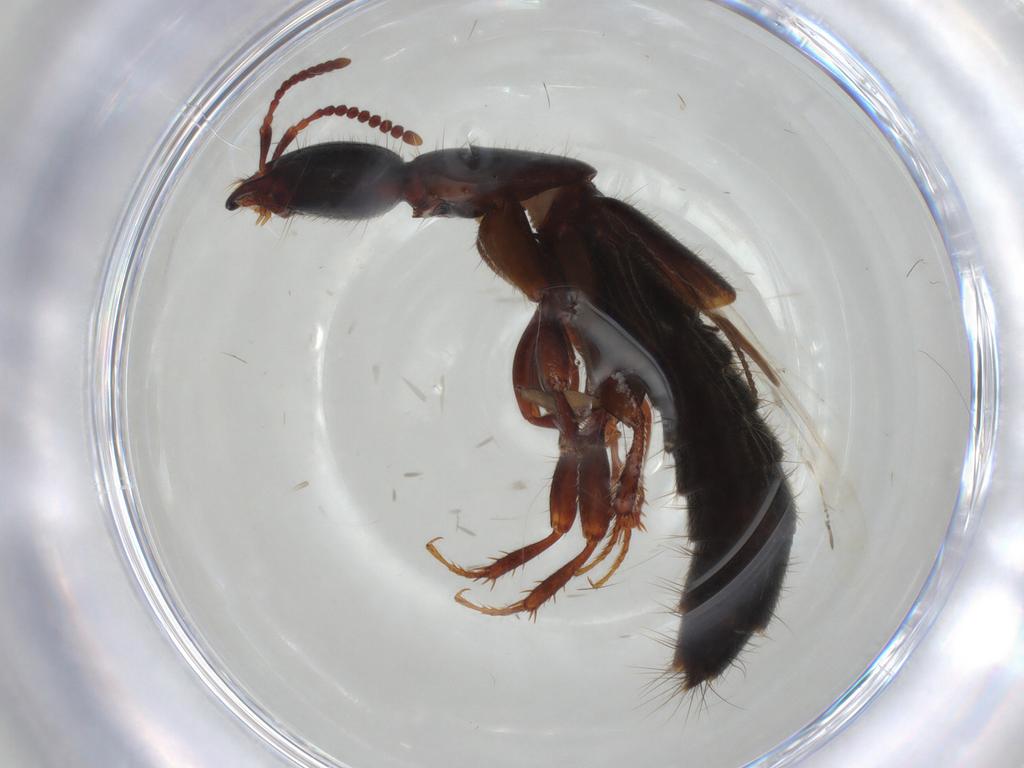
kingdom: Animalia
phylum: Arthropoda
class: Insecta
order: Coleoptera
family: Staphylinidae
